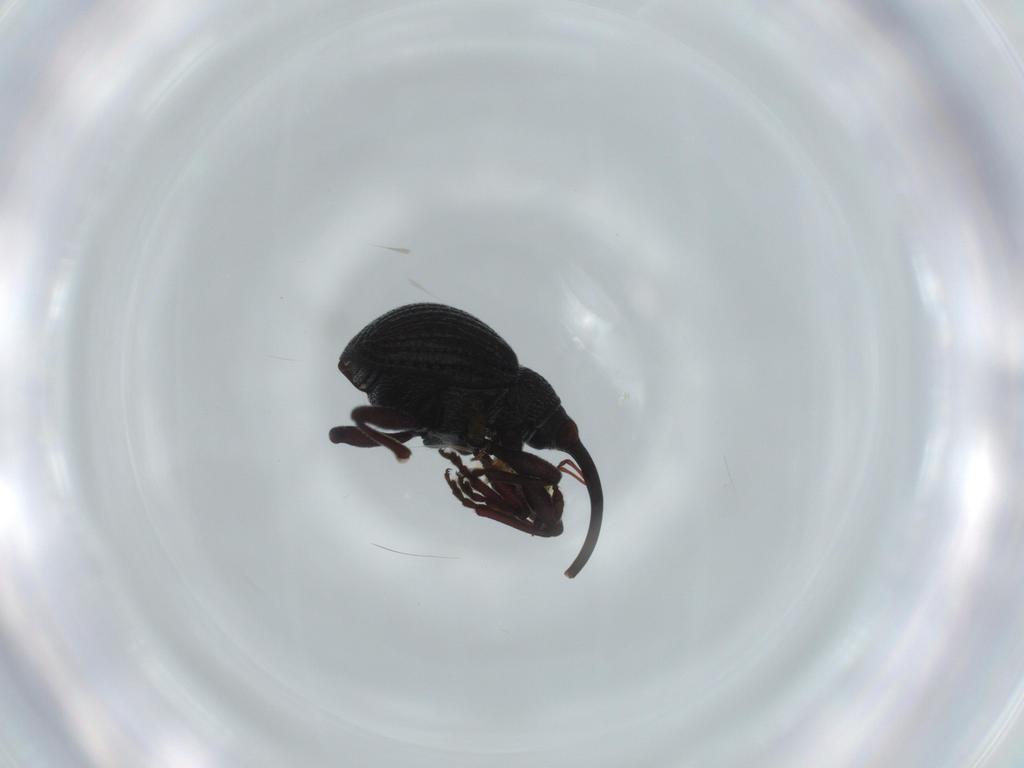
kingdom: Animalia
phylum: Arthropoda
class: Insecta
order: Coleoptera
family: Brentidae
